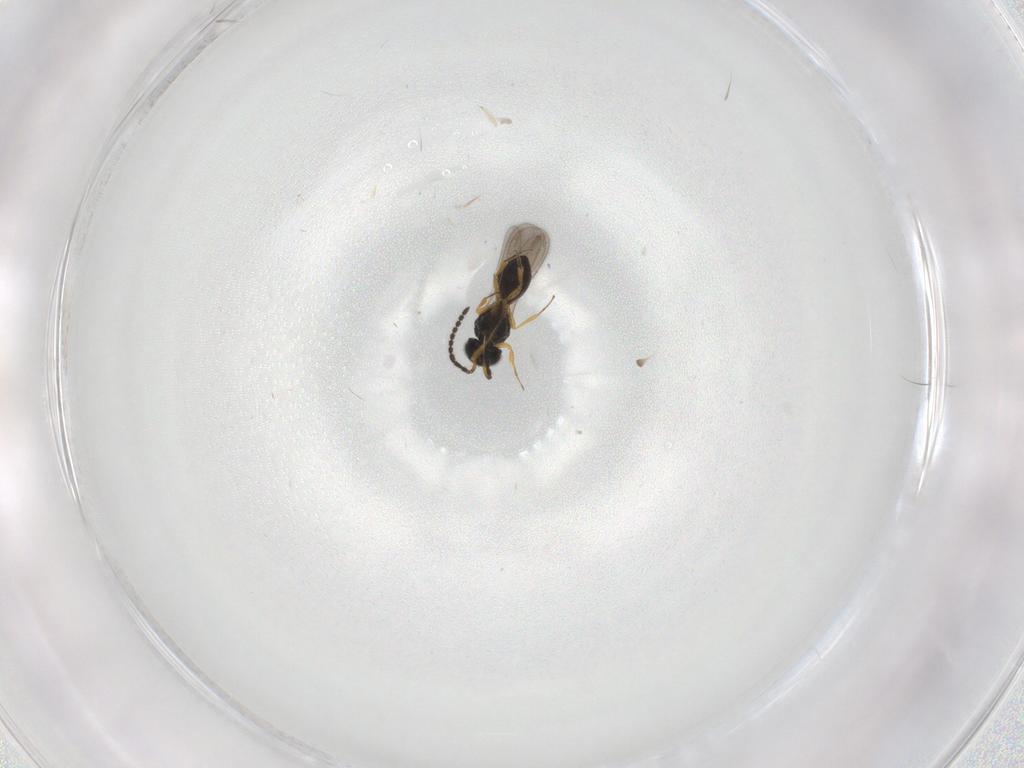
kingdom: Animalia
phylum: Arthropoda
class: Insecta
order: Hymenoptera
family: Scelionidae
